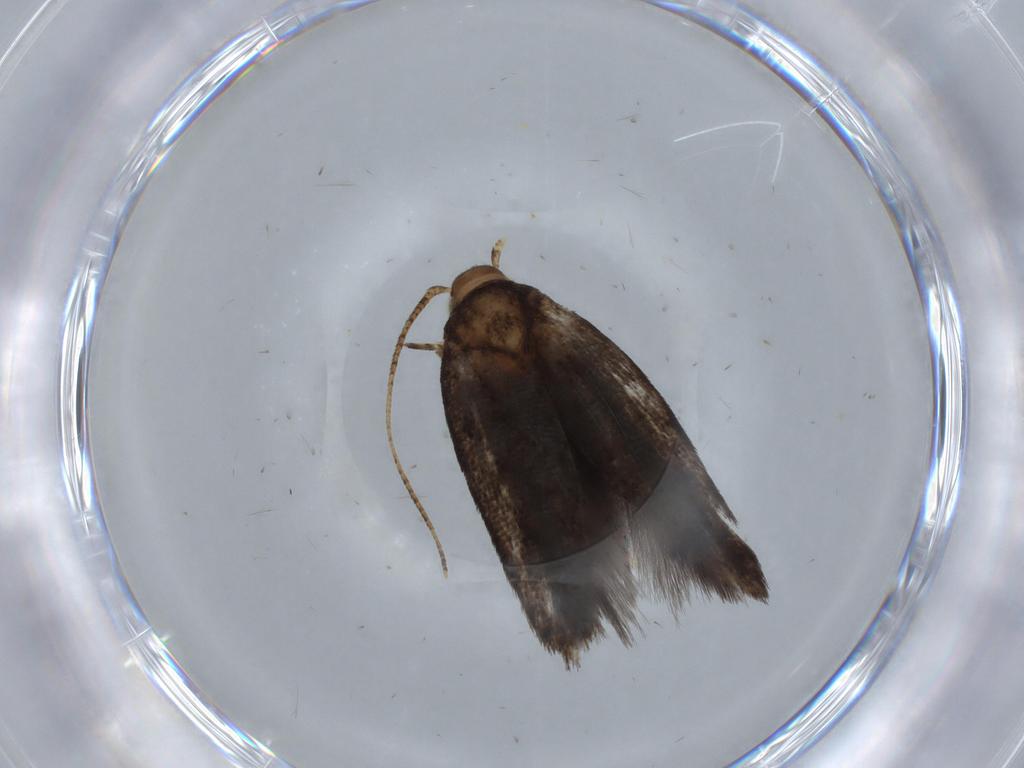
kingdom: Animalia
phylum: Arthropoda
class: Insecta
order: Lepidoptera
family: Gelechiidae
